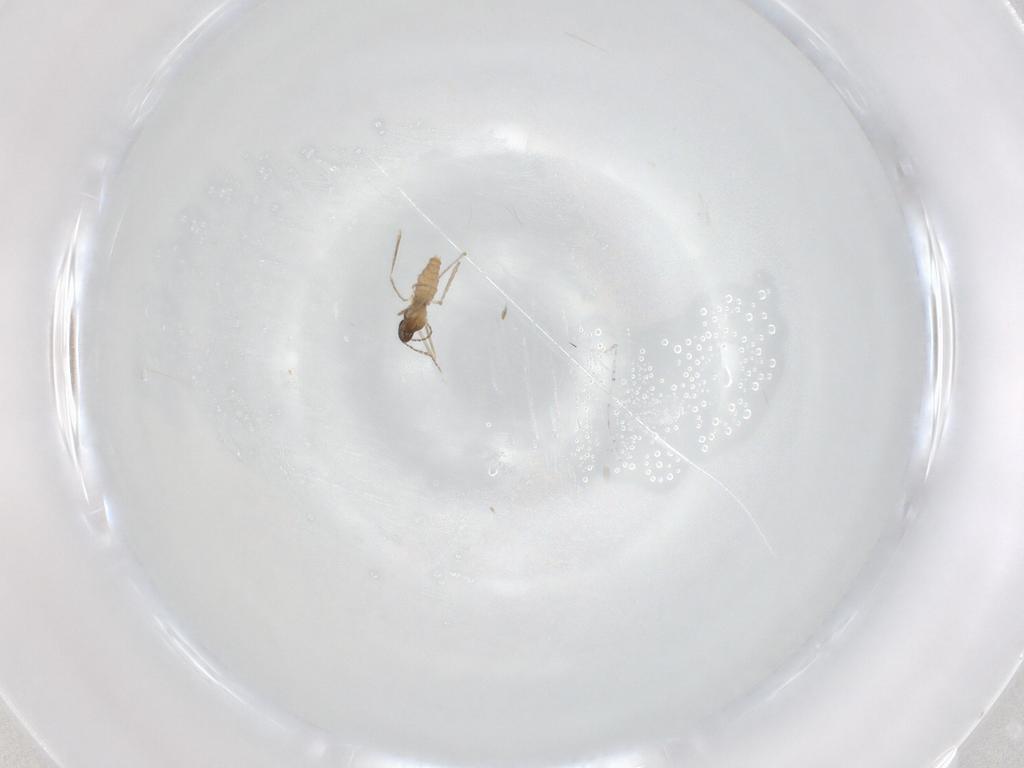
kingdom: Animalia
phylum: Arthropoda
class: Insecta
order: Diptera
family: Cecidomyiidae
